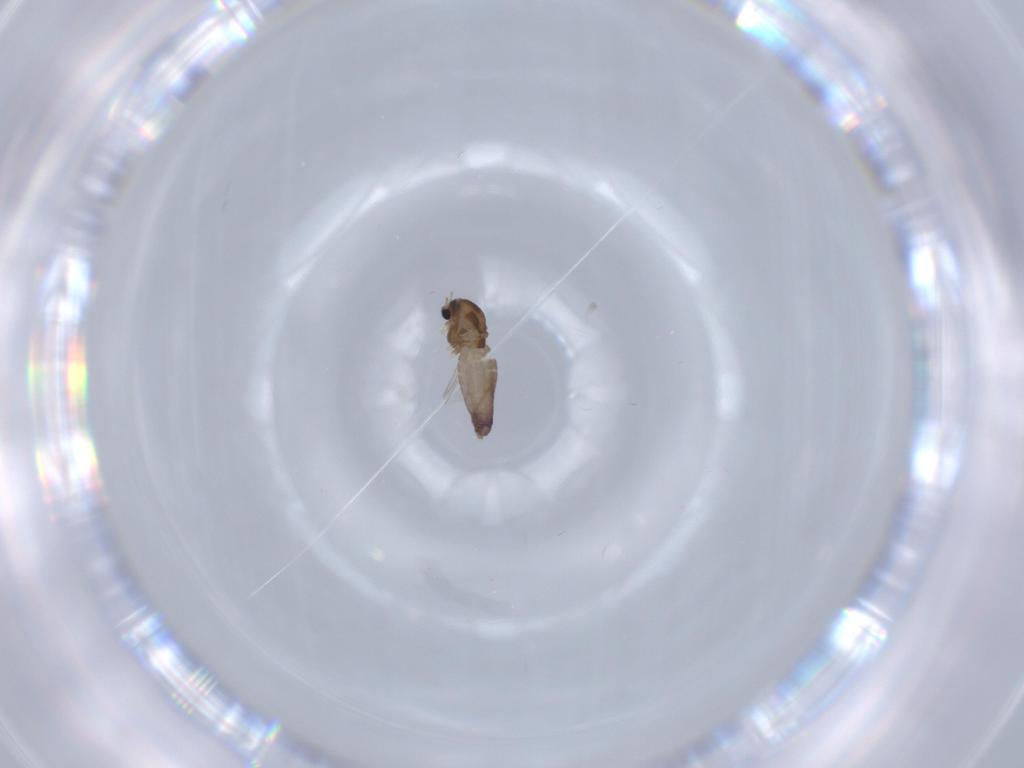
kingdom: Animalia
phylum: Arthropoda
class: Insecta
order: Diptera
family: Chironomidae
